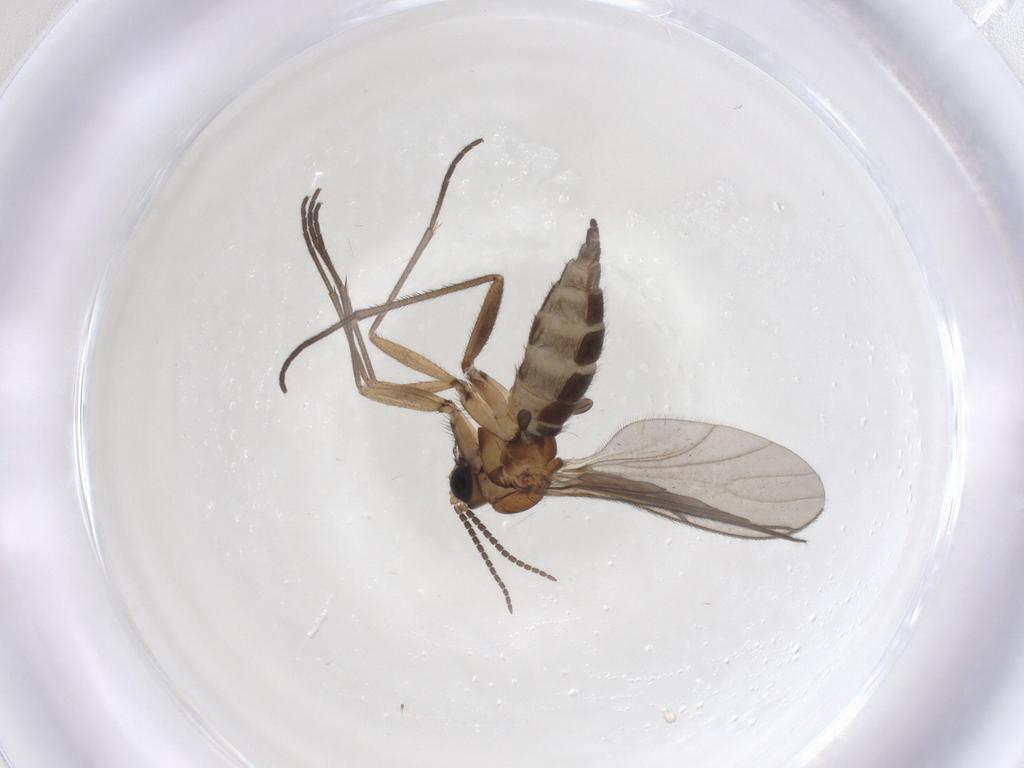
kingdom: Animalia
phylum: Arthropoda
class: Insecta
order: Diptera
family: Sciaridae
